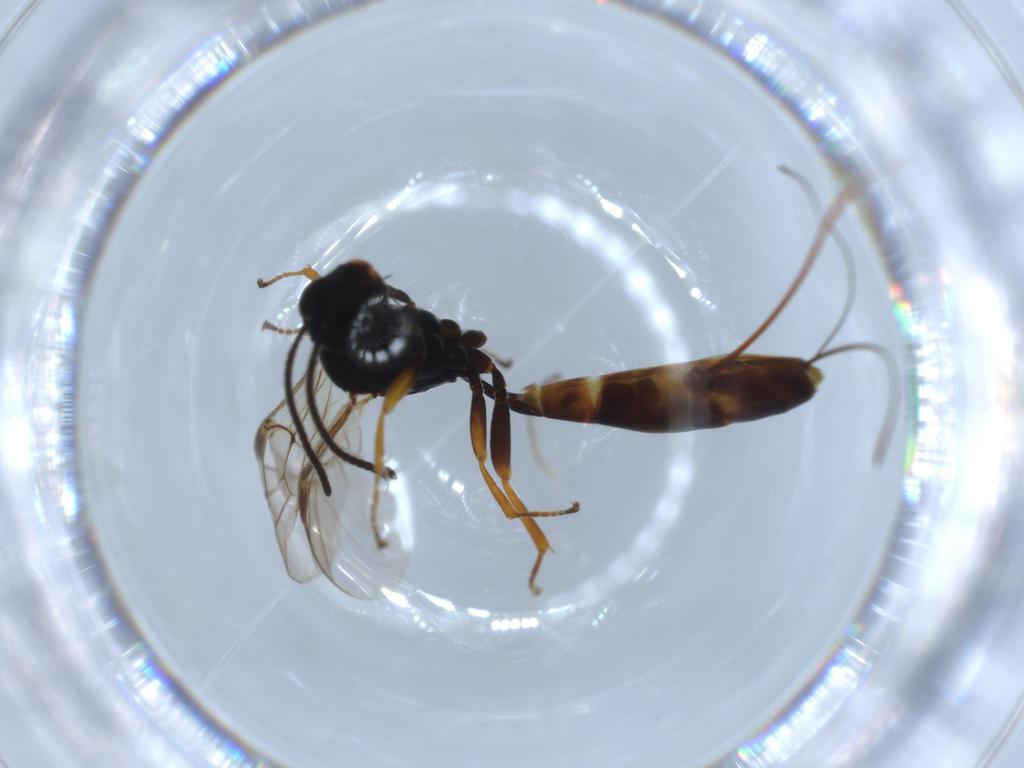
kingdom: Animalia
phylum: Arthropoda
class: Insecta
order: Hymenoptera
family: Ichneumonidae
